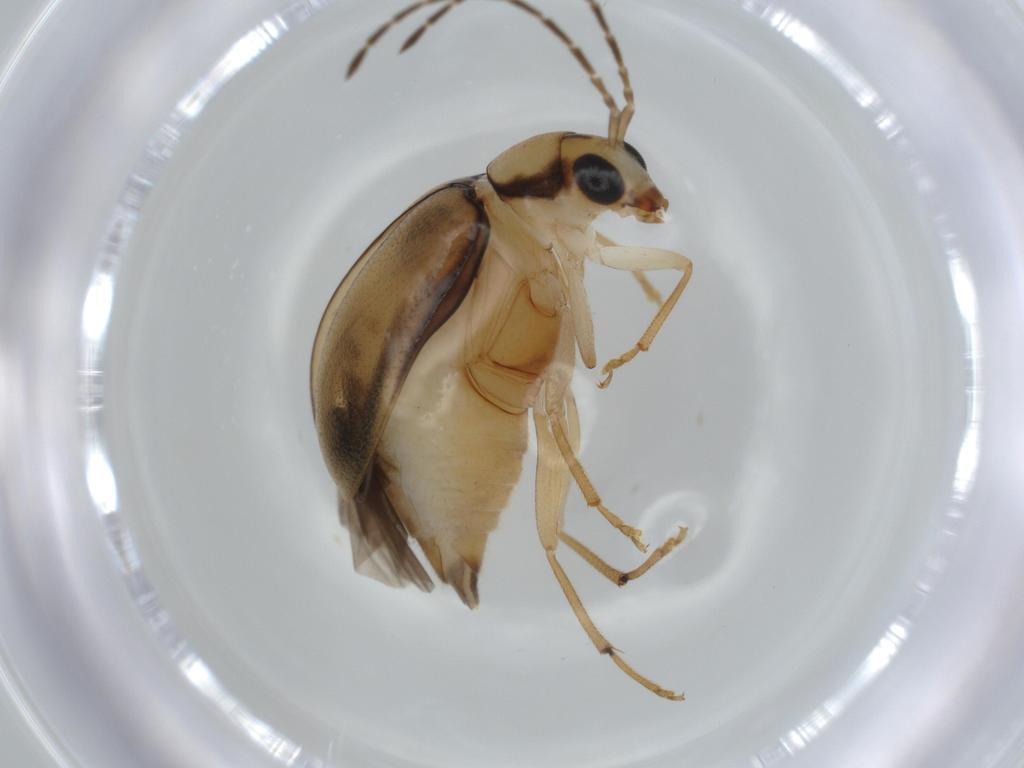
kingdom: Animalia
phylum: Arthropoda
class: Insecta
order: Coleoptera
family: Chrysomelidae
